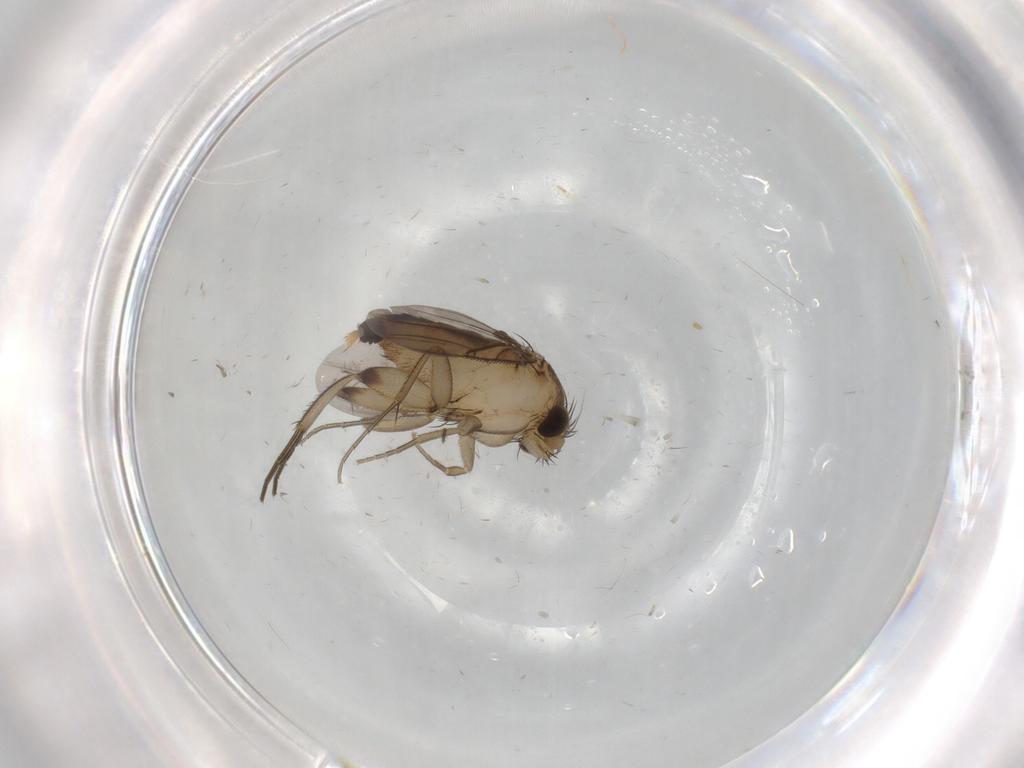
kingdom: Animalia
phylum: Arthropoda
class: Insecta
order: Diptera
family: Phoridae
